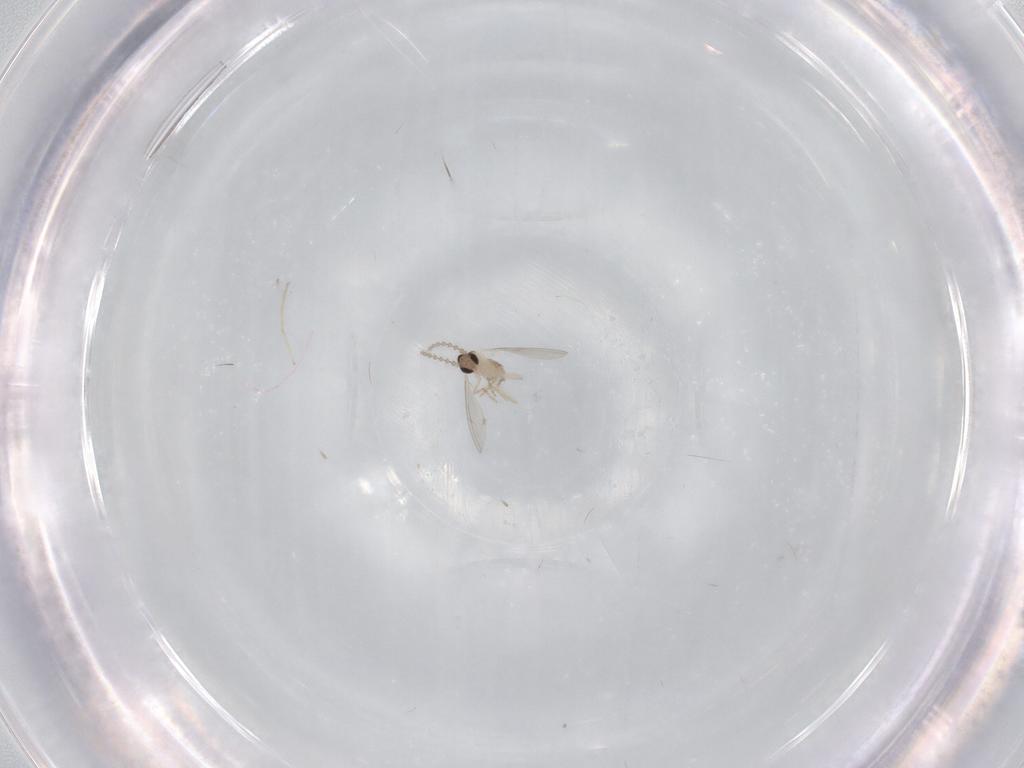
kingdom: Animalia
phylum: Arthropoda
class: Insecta
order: Diptera
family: Cecidomyiidae
